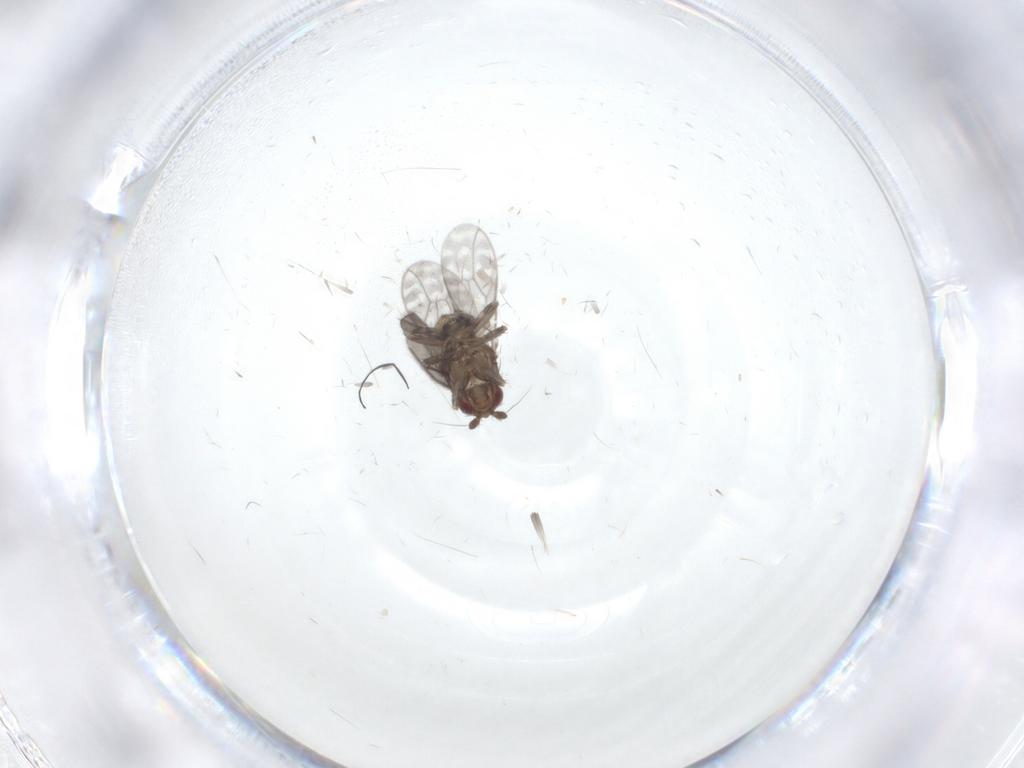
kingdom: Animalia
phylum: Arthropoda
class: Insecta
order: Diptera
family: Sphaeroceridae
